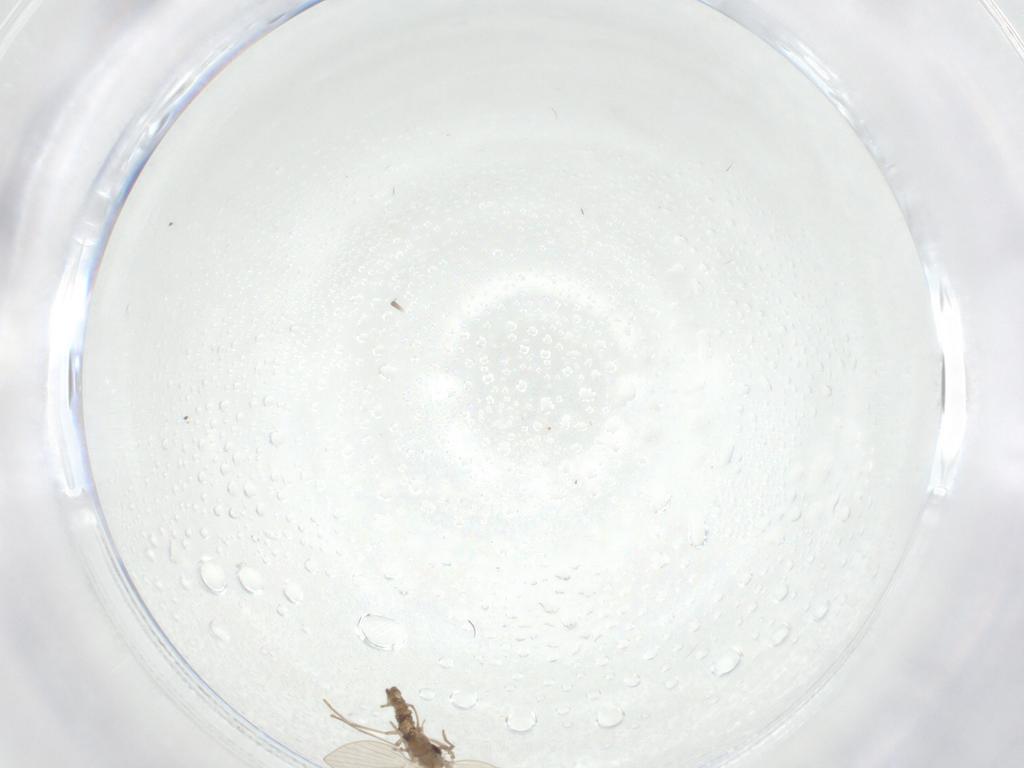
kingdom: Animalia
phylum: Arthropoda
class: Insecta
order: Diptera
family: Psychodidae
